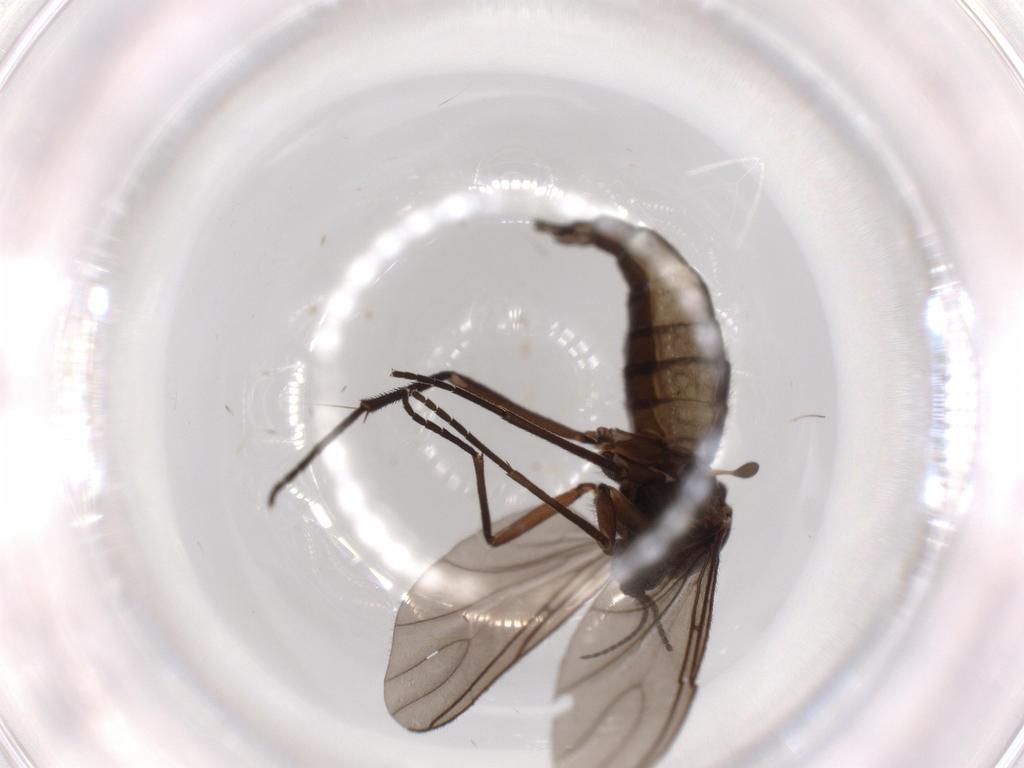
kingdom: Animalia
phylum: Arthropoda
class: Insecta
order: Diptera
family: Sciaridae
